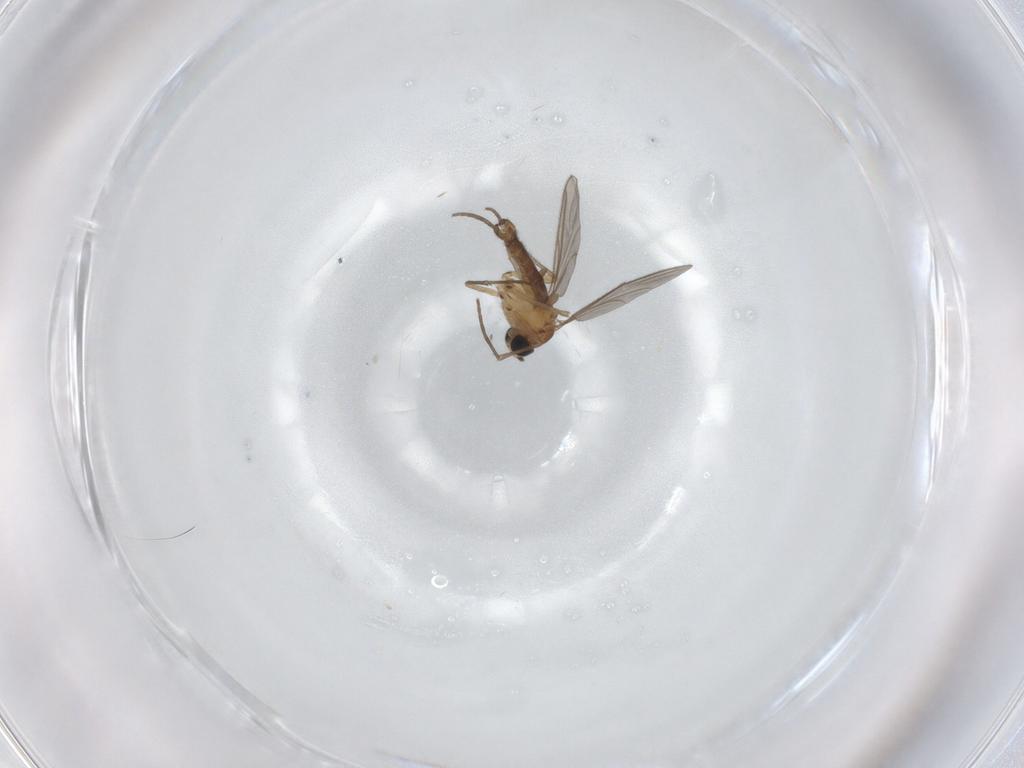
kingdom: Animalia
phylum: Arthropoda
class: Insecta
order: Diptera
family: Sciaridae
